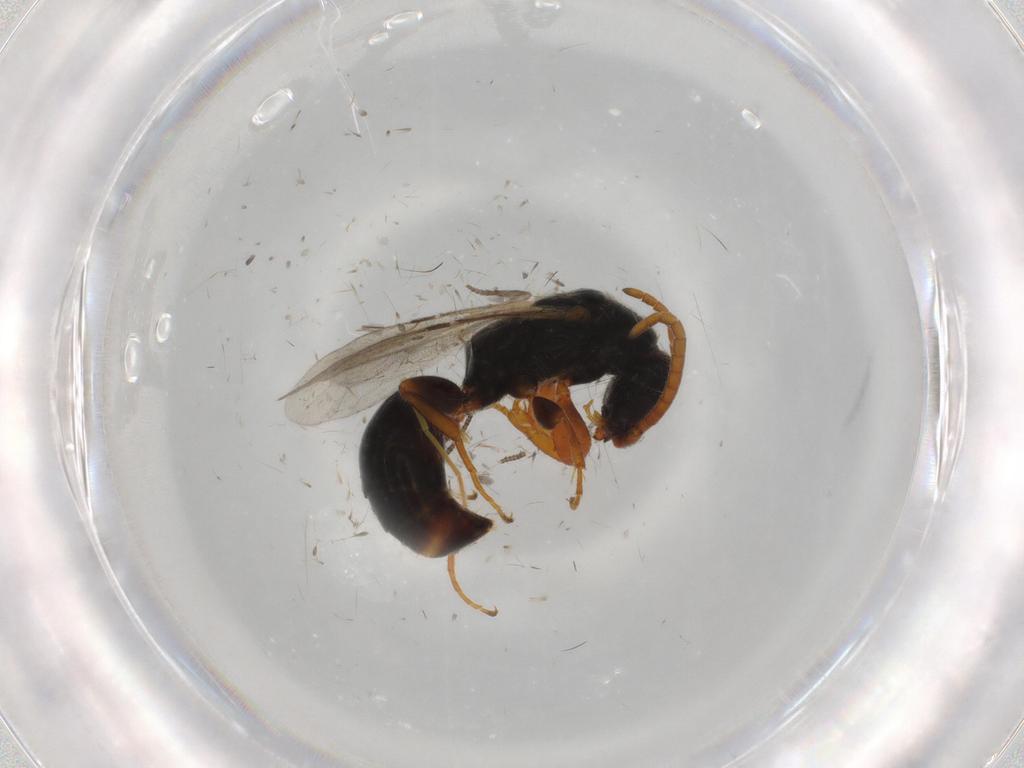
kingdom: Animalia
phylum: Arthropoda
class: Insecta
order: Hymenoptera
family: Bethylidae
